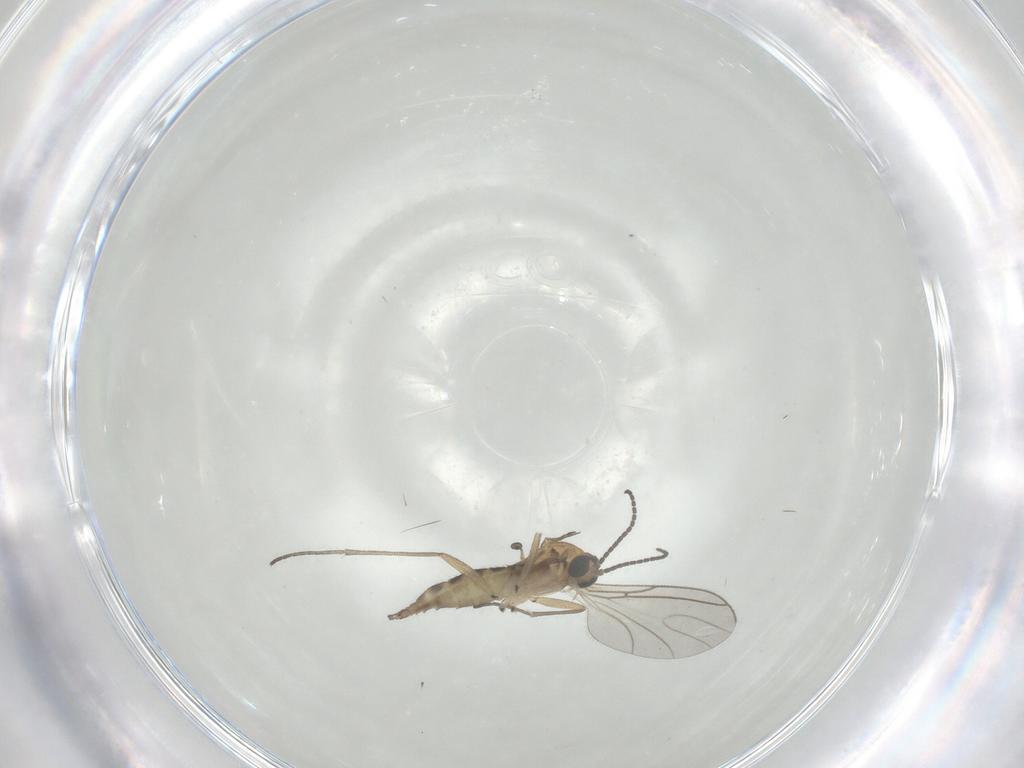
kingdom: Animalia
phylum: Arthropoda
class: Insecta
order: Diptera
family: Sciaridae
